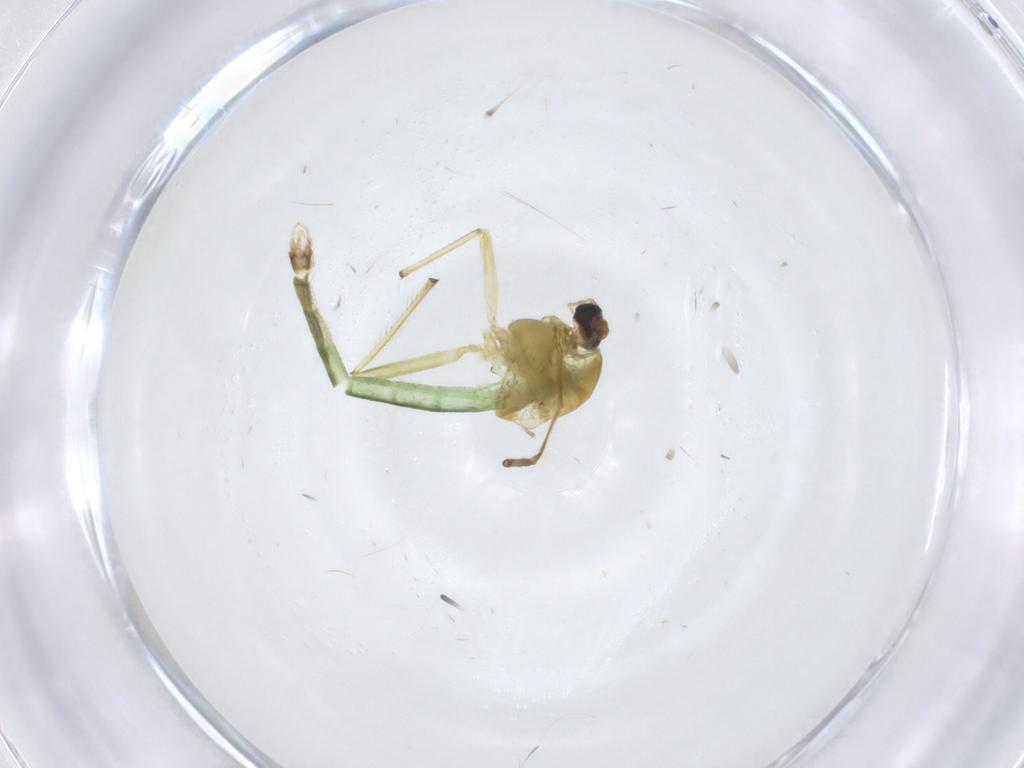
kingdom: Animalia
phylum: Arthropoda
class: Insecta
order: Diptera
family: Chironomidae
